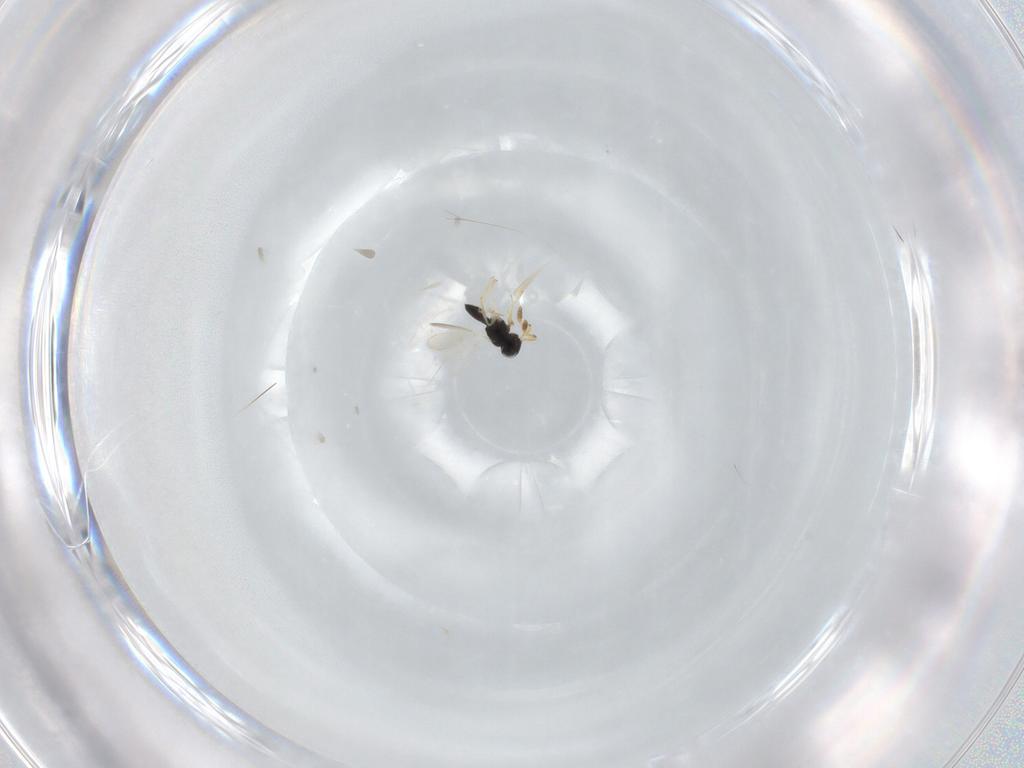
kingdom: Animalia
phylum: Arthropoda
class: Insecta
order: Hymenoptera
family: Scelionidae
